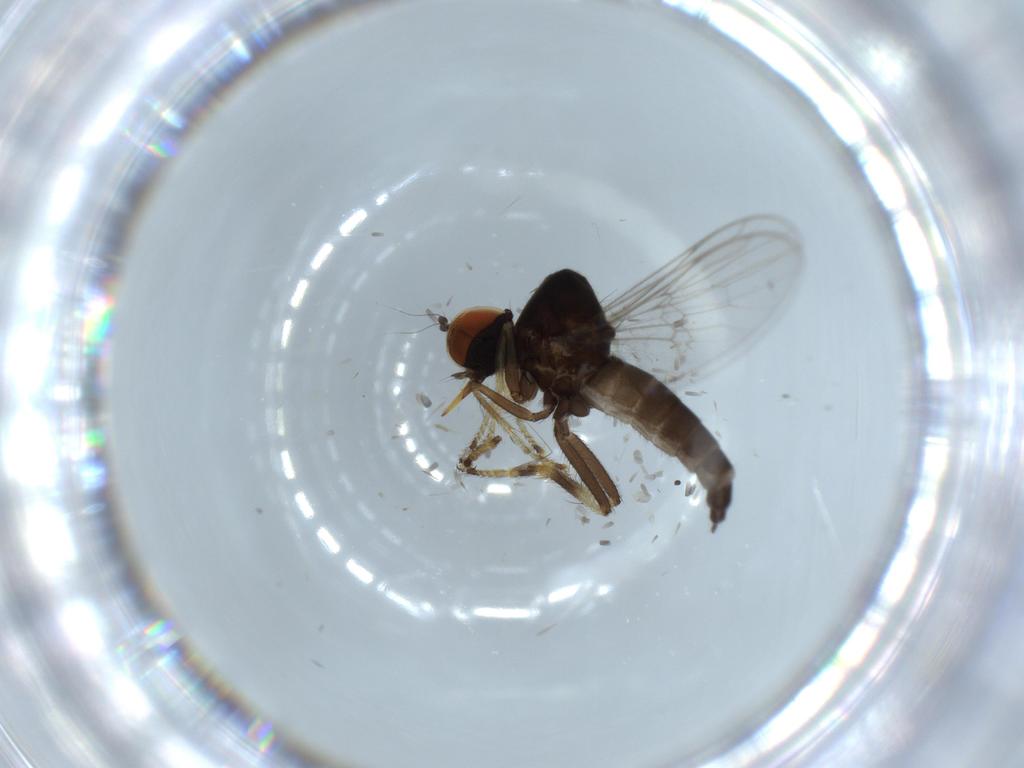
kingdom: Animalia
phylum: Arthropoda
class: Insecta
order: Diptera
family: Hybotidae
